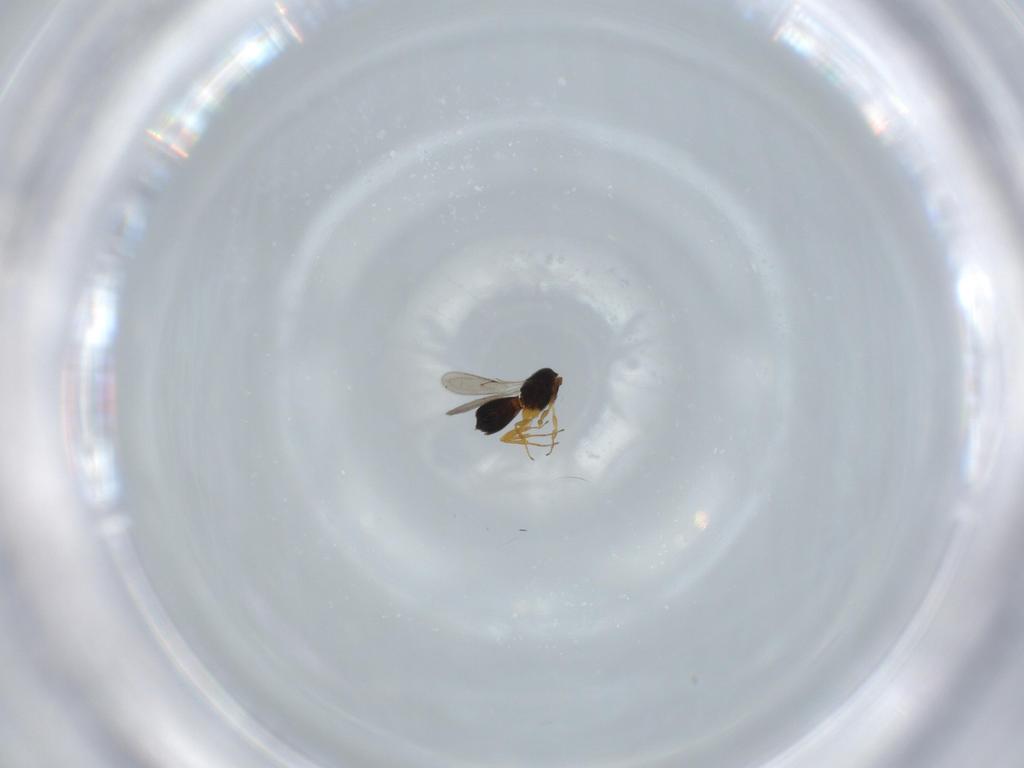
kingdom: Animalia
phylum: Arthropoda
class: Insecta
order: Hymenoptera
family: Scelionidae
